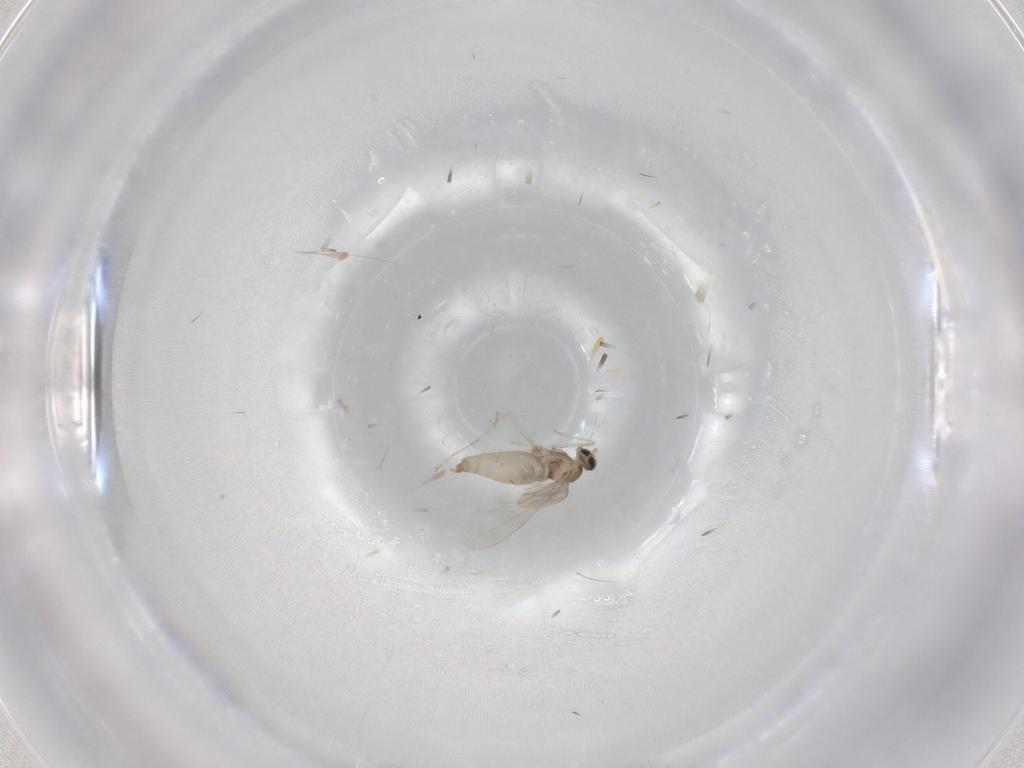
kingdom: Animalia
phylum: Arthropoda
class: Insecta
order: Diptera
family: Cecidomyiidae
